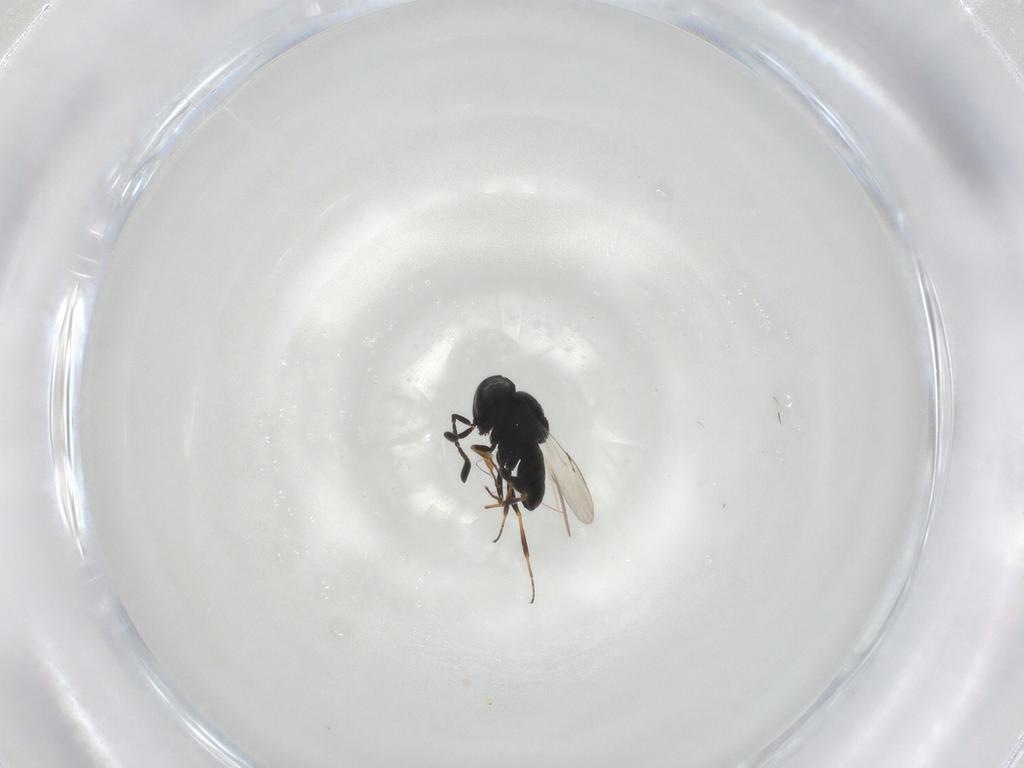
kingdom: Animalia
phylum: Arthropoda
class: Insecta
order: Hymenoptera
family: Scelionidae
